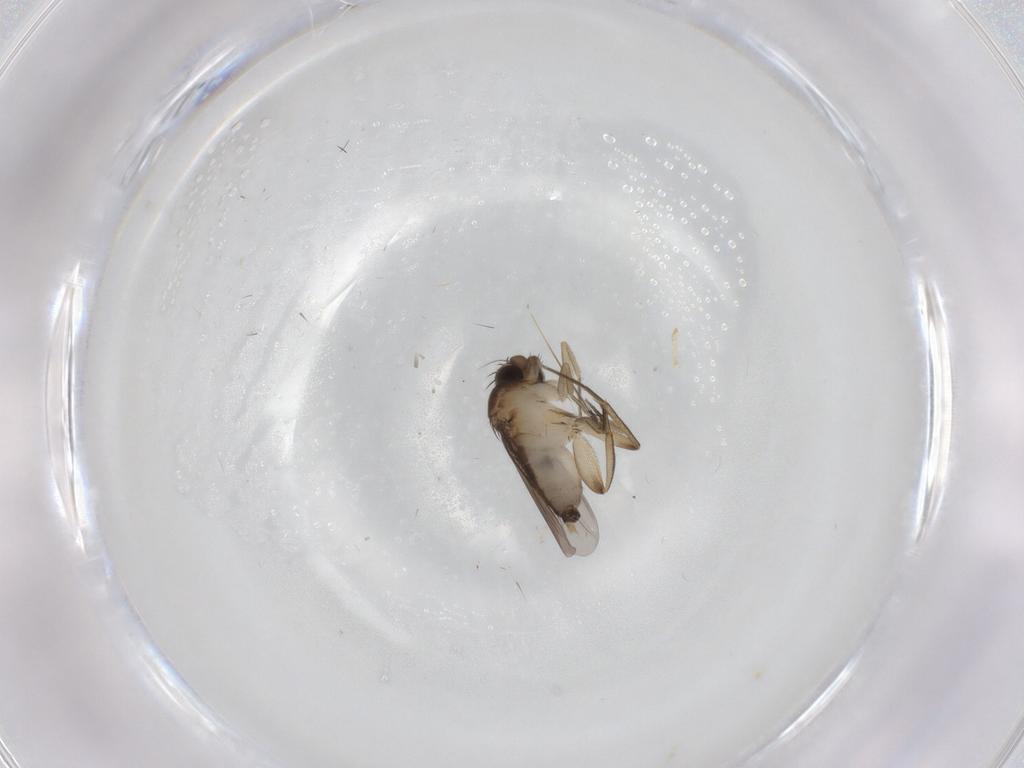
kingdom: Animalia
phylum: Arthropoda
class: Insecta
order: Diptera
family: Phoridae
